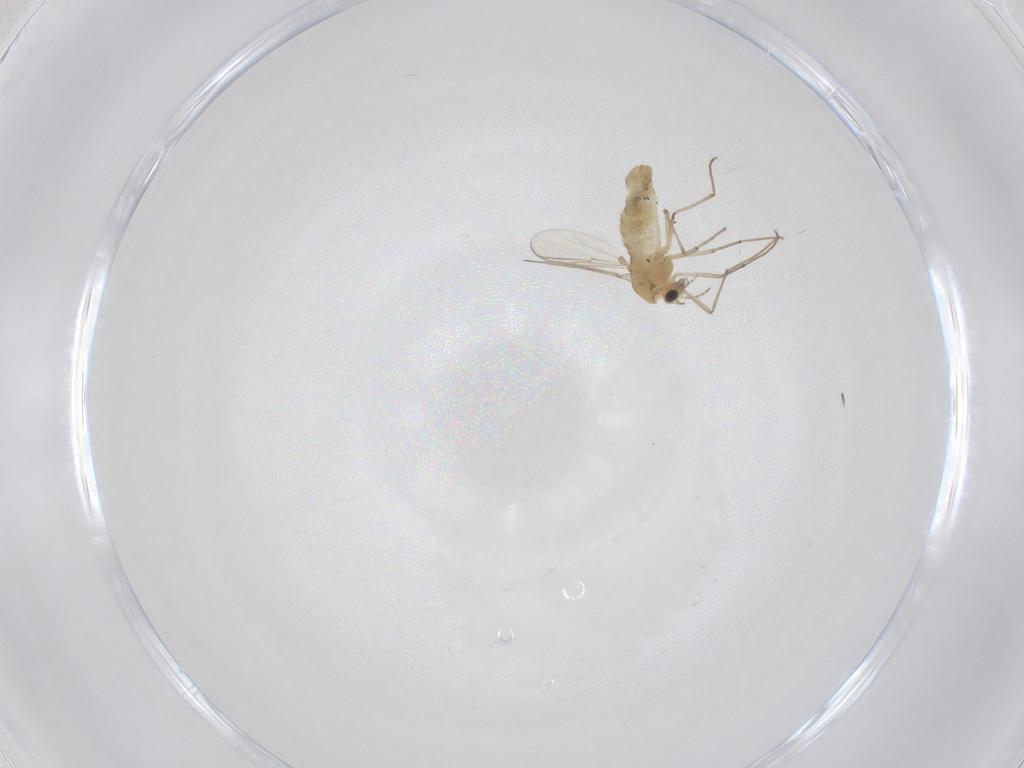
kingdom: Animalia
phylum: Arthropoda
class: Insecta
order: Diptera
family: Chironomidae
